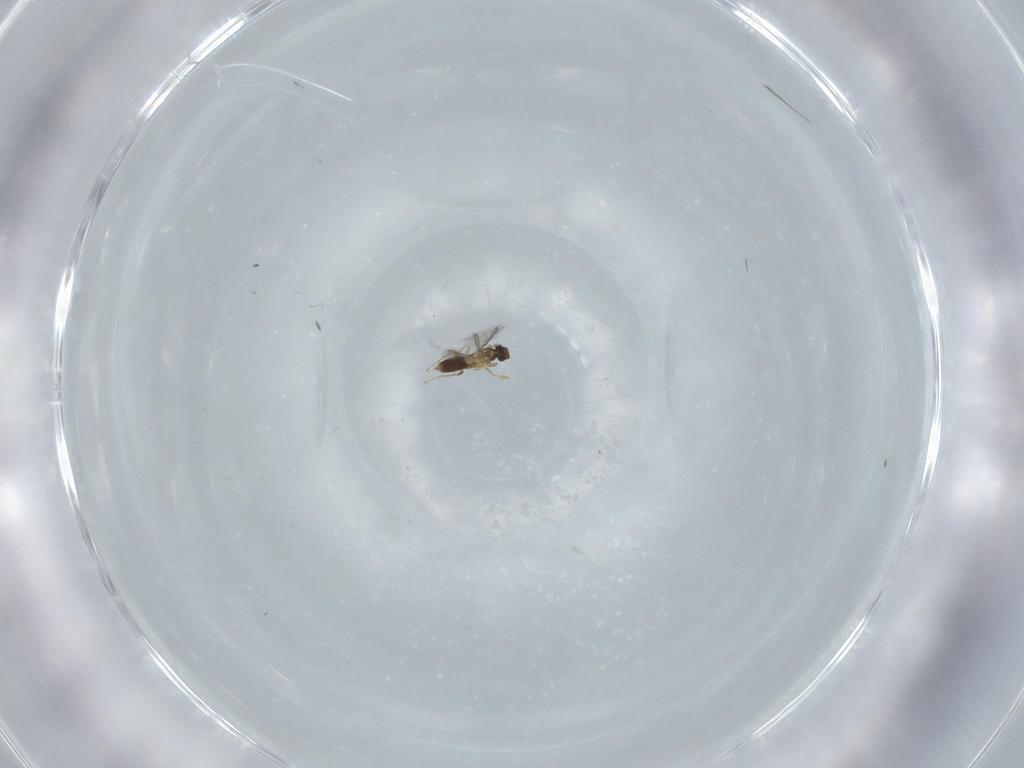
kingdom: Animalia
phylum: Arthropoda
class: Insecta
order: Hymenoptera
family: Mymaridae
